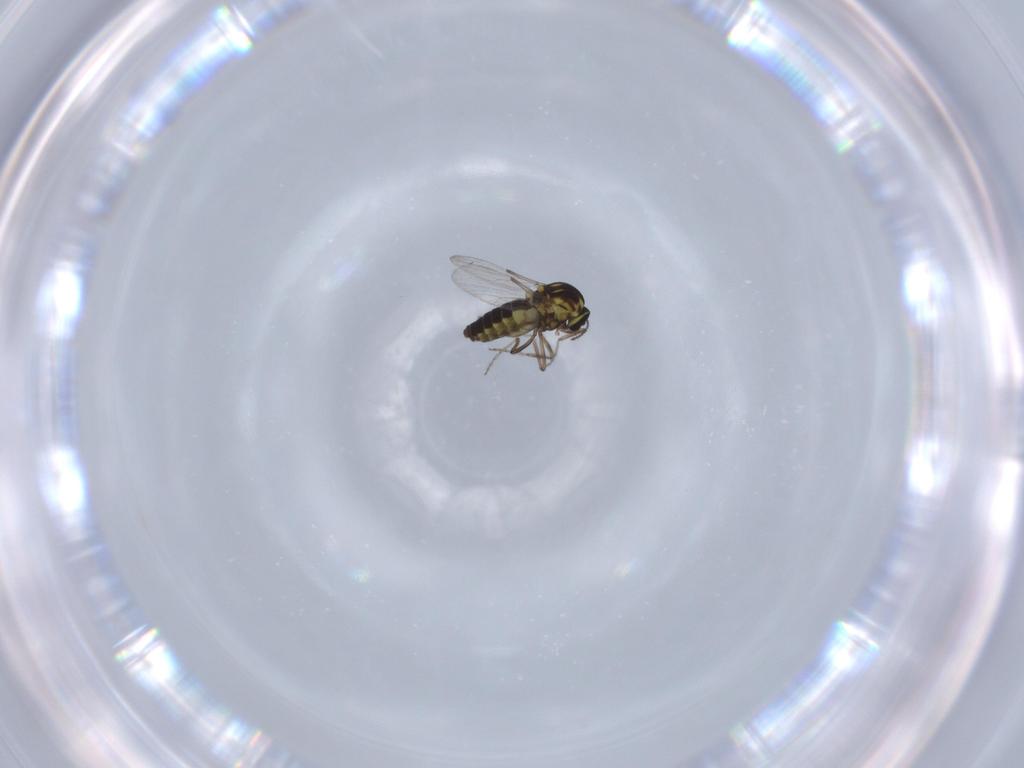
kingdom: Animalia
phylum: Arthropoda
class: Insecta
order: Diptera
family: Ceratopogonidae
